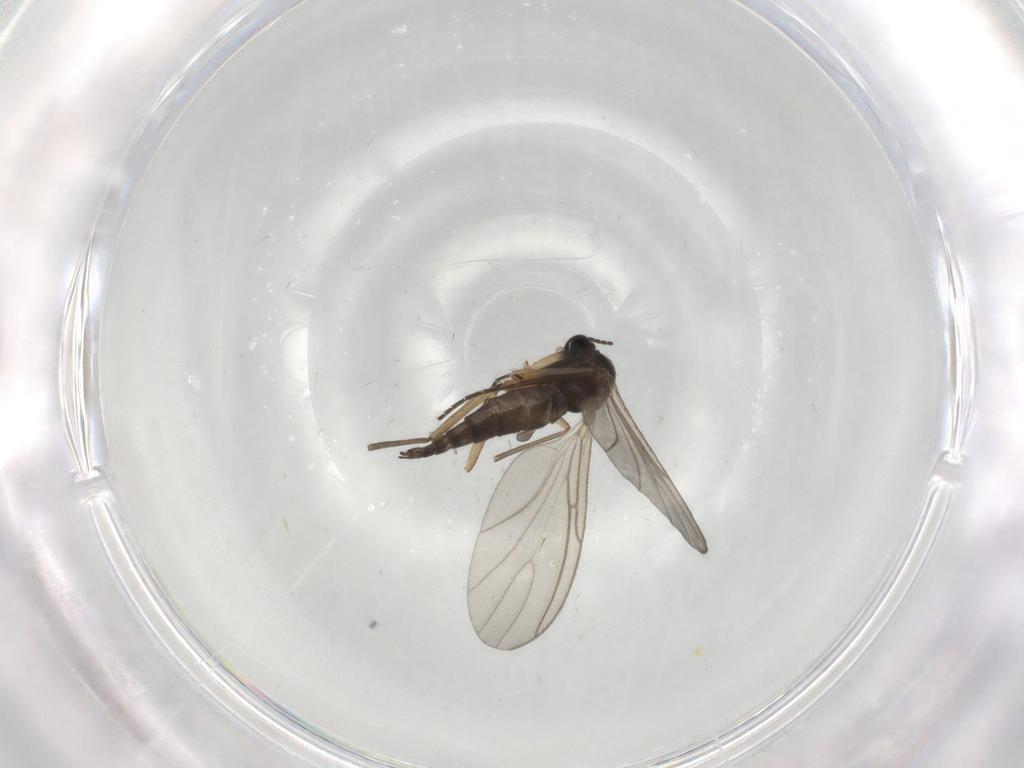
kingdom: Animalia
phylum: Arthropoda
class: Insecta
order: Diptera
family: Sciaridae
